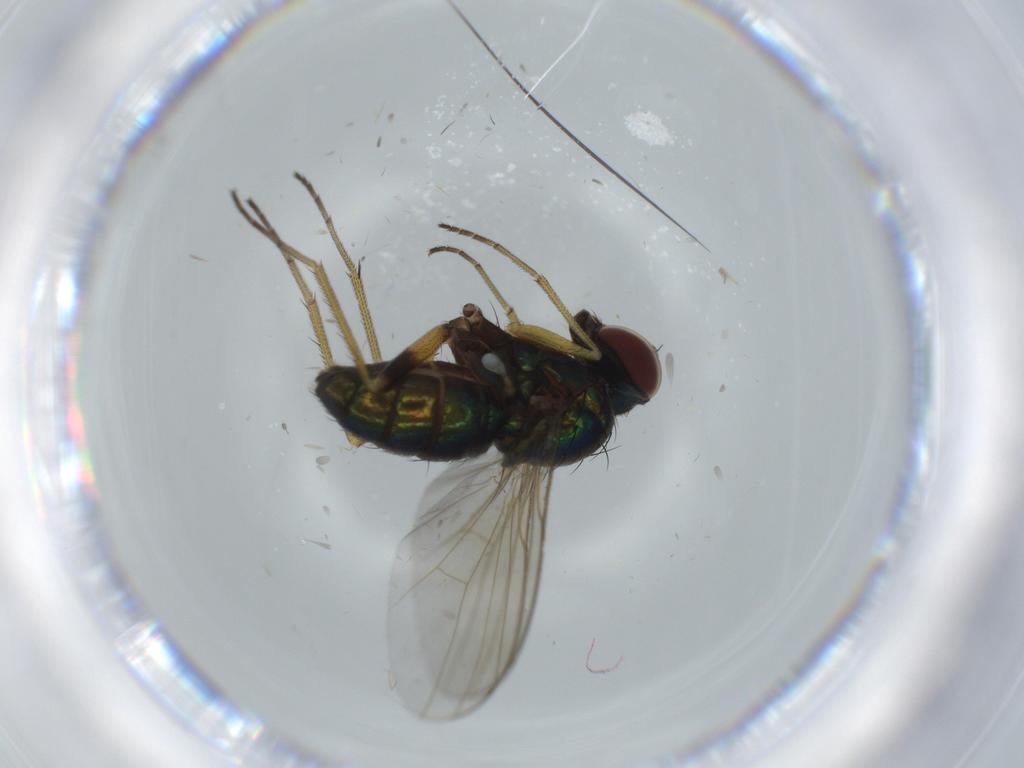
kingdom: Animalia
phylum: Arthropoda
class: Insecta
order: Diptera
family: Dolichopodidae
